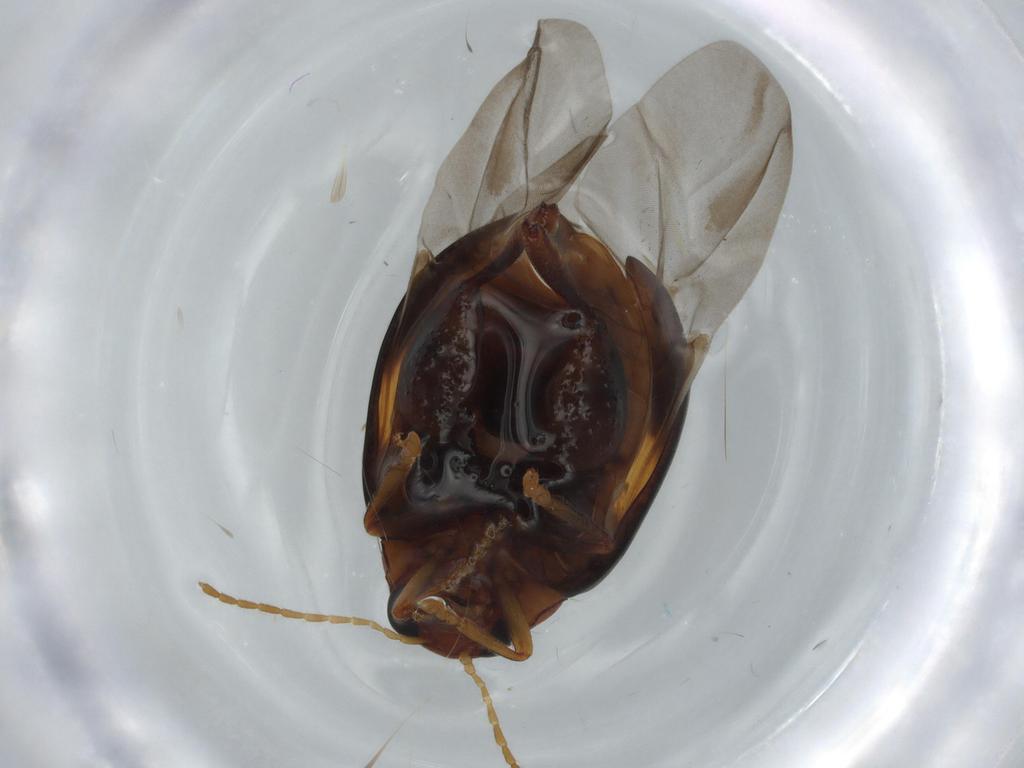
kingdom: Animalia
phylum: Arthropoda
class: Insecta
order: Coleoptera
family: Chrysomelidae
